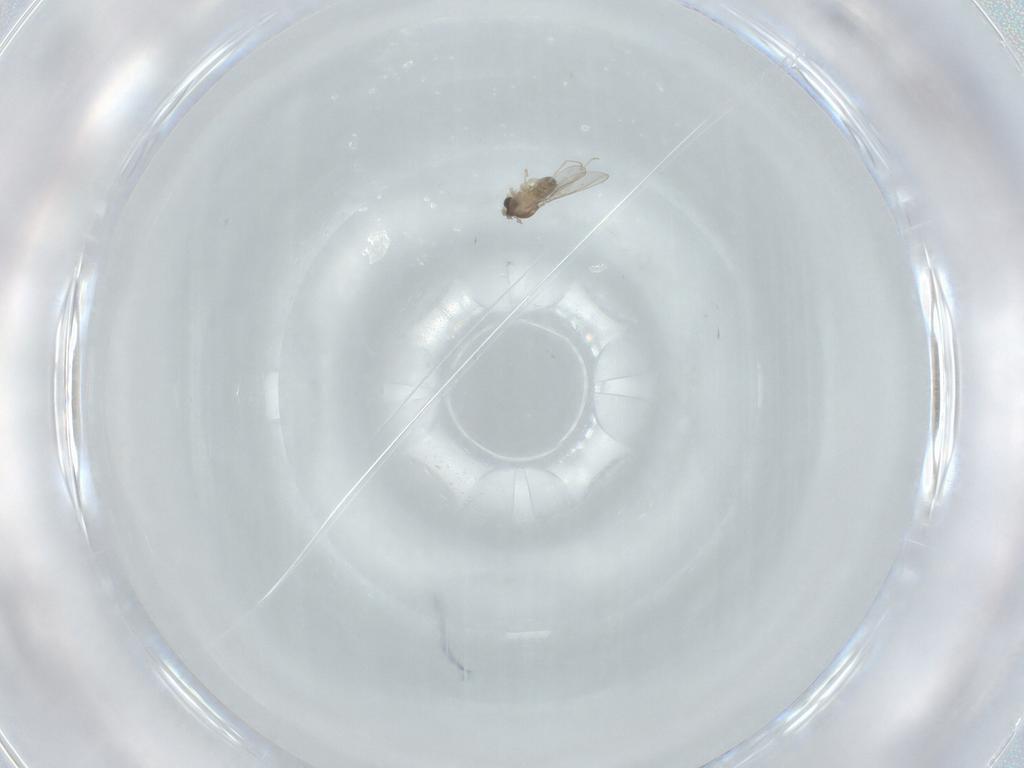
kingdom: Animalia
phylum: Arthropoda
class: Insecta
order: Diptera
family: Cecidomyiidae
